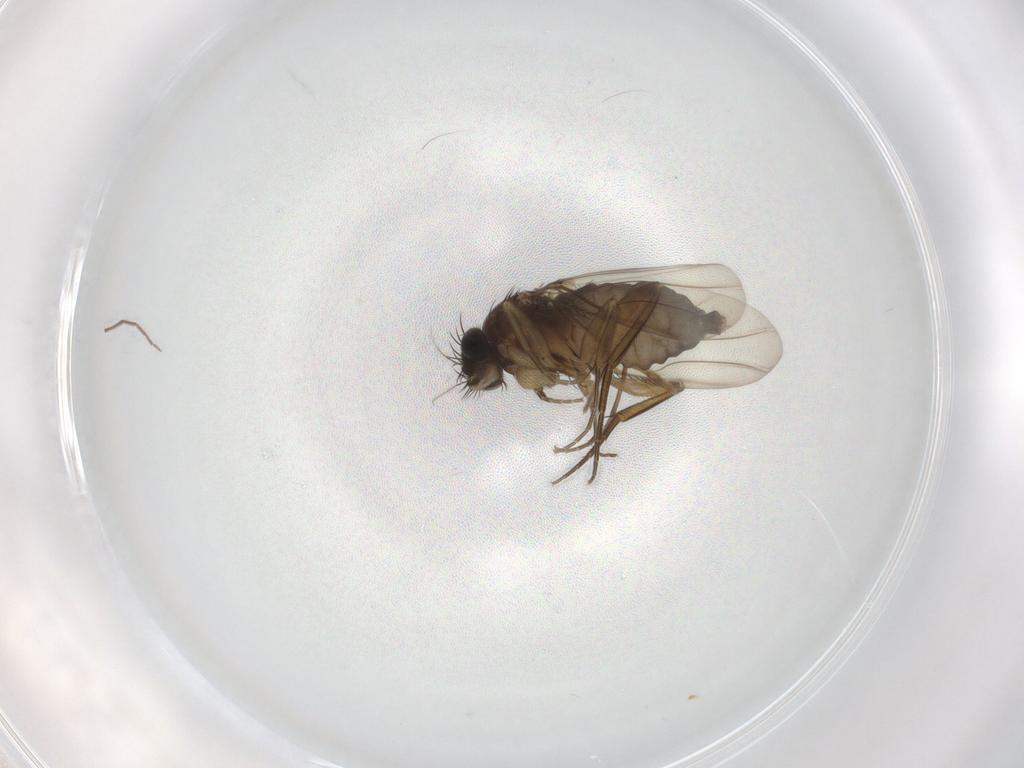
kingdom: Animalia
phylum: Arthropoda
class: Insecta
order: Diptera
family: Phoridae
